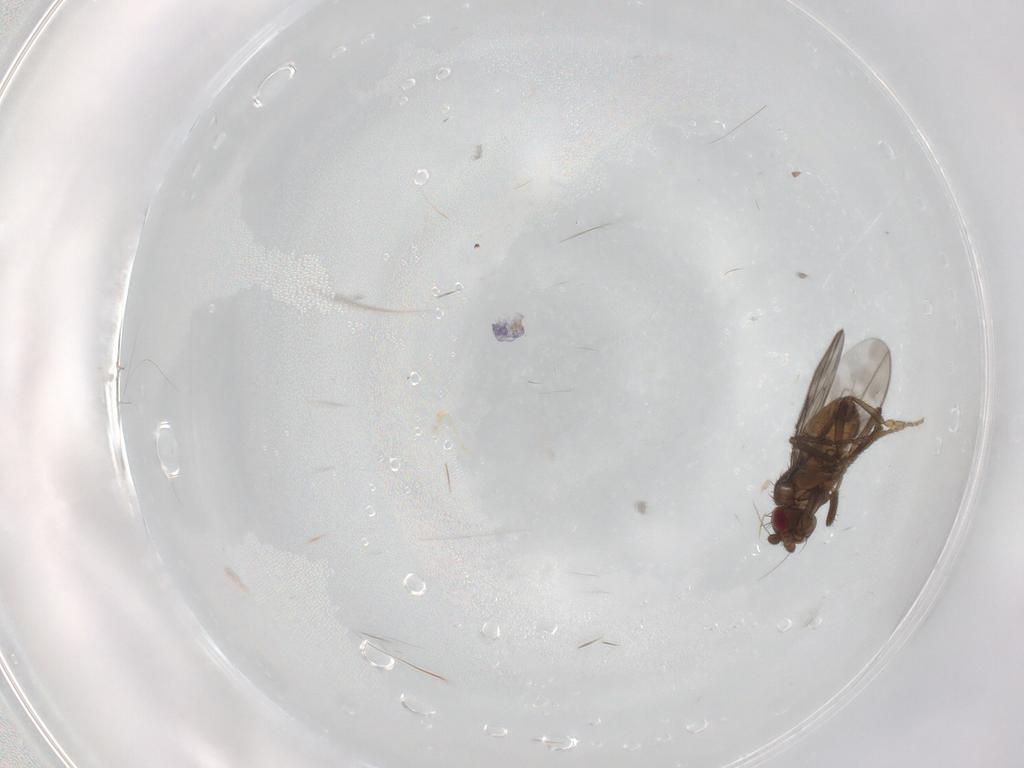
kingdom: Animalia
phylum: Arthropoda
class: Insecta
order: Diptera
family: Sphaeroceridae
